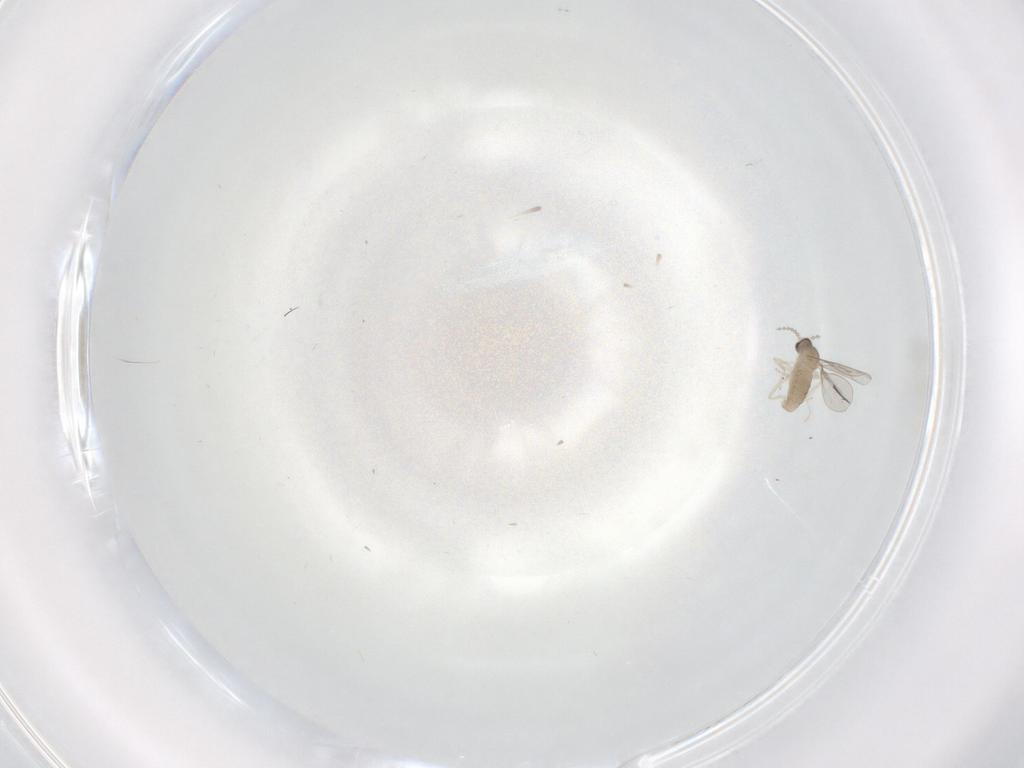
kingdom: Animalia
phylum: Arthropoda
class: Insecta
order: Diptera
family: Cecidomyiidae
